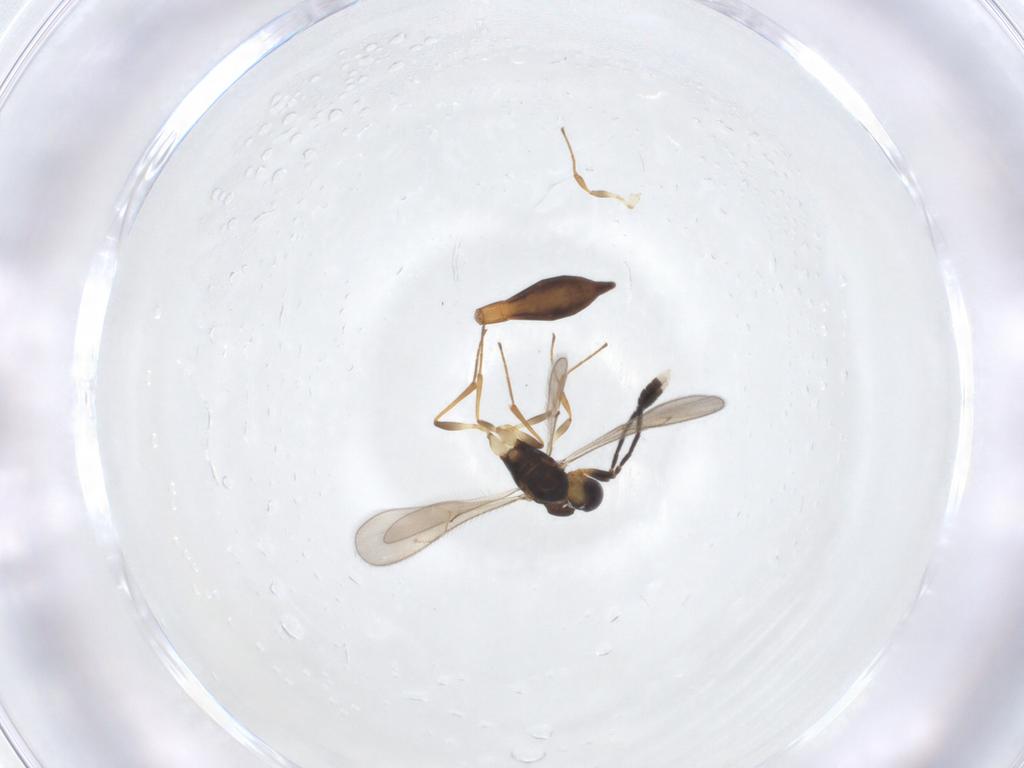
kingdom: Animalia
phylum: Arthropoda
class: Insecta
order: Hymenoptera
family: Scelionidae
